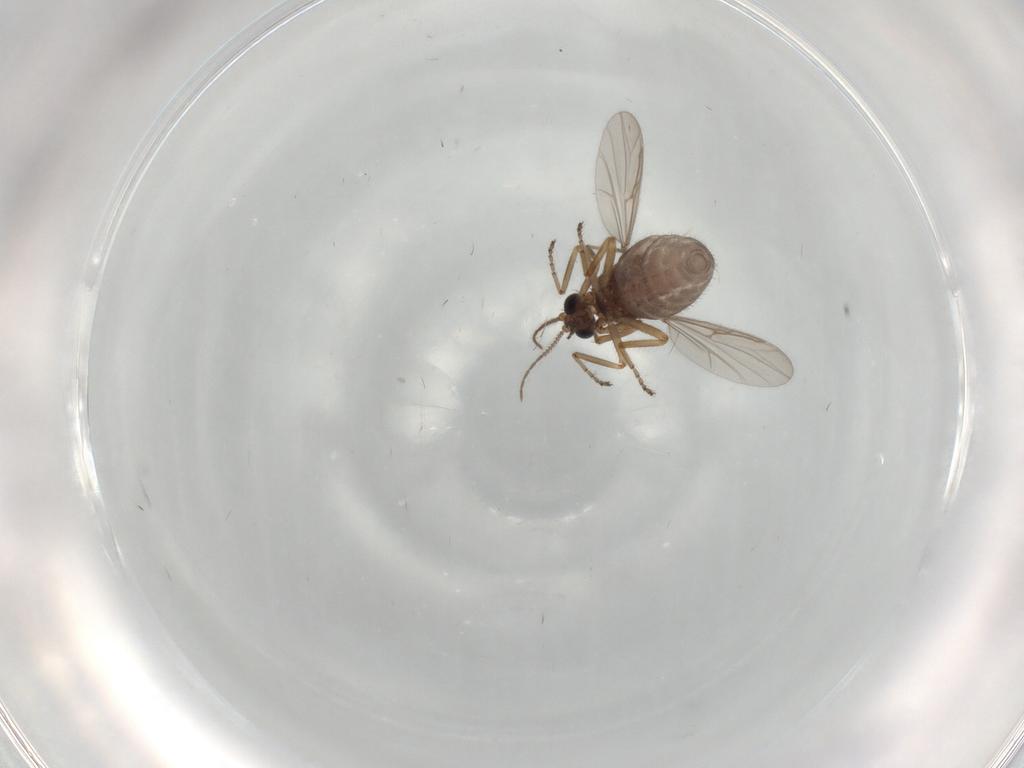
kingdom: Animalia
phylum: Arthropoda
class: Insecta
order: Diptera
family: Ceratopogonidae
